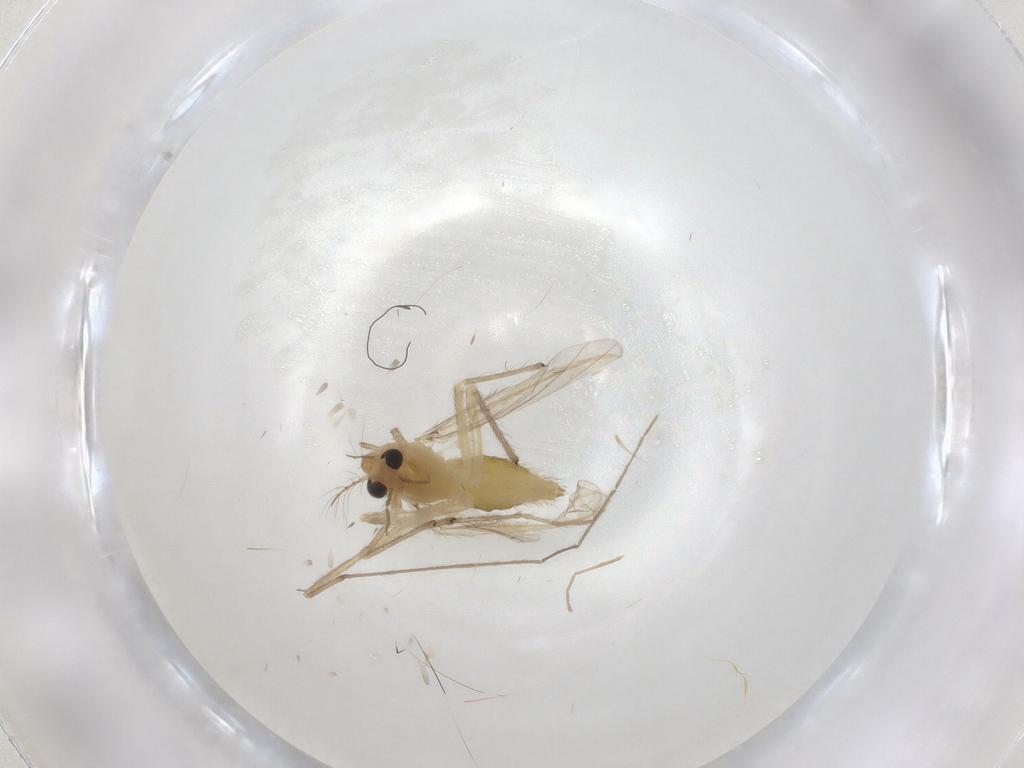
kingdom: Animalia
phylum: Arthropoda
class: Insecta
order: Diptera
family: Chironomidae
